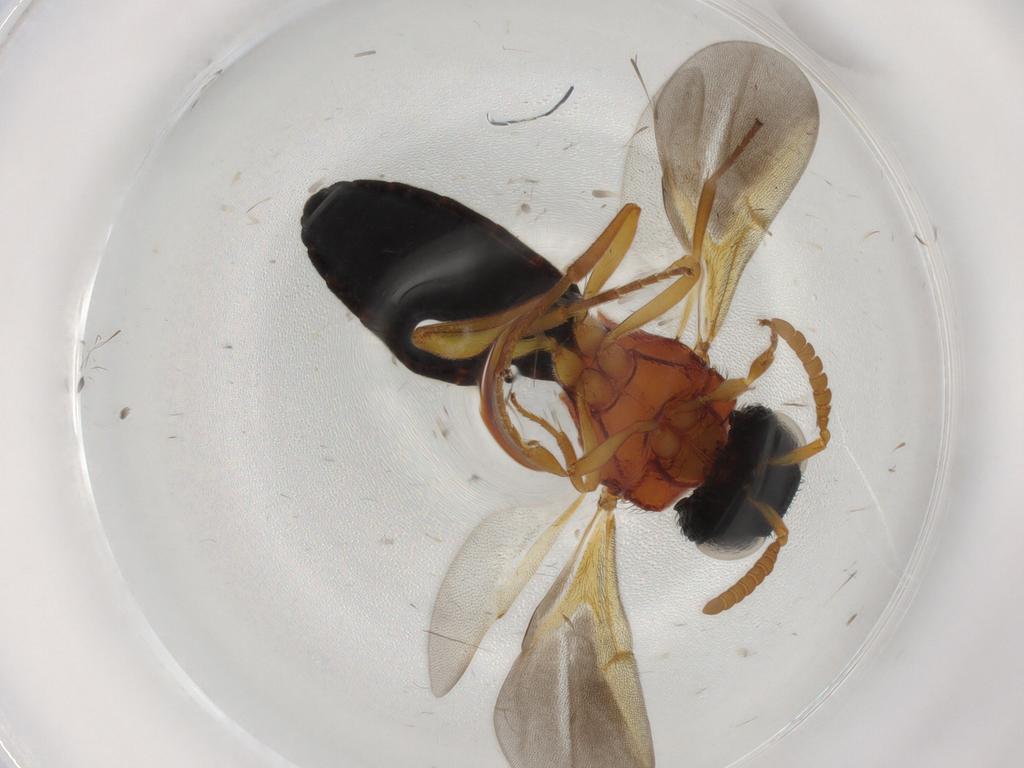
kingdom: Animalia
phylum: Arthropoda
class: Insecta
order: Hymenoptera
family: Scelionidae
